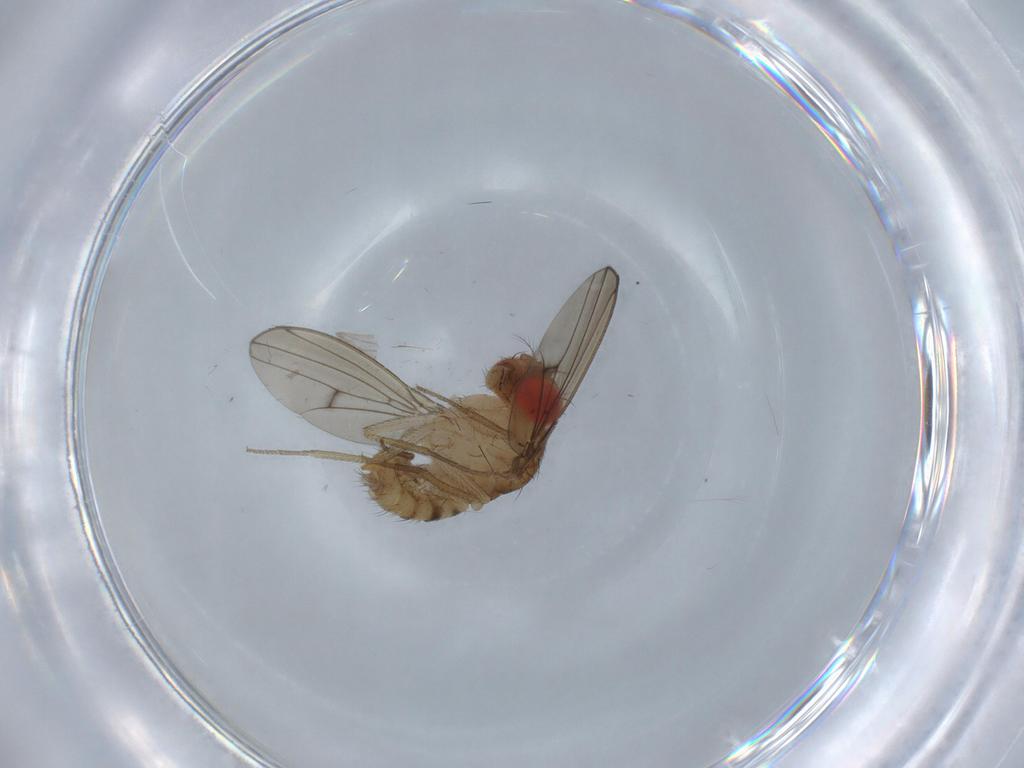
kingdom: Animalia
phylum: Arthropoda
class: Insecta
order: Diptera
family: Drosophilidae
